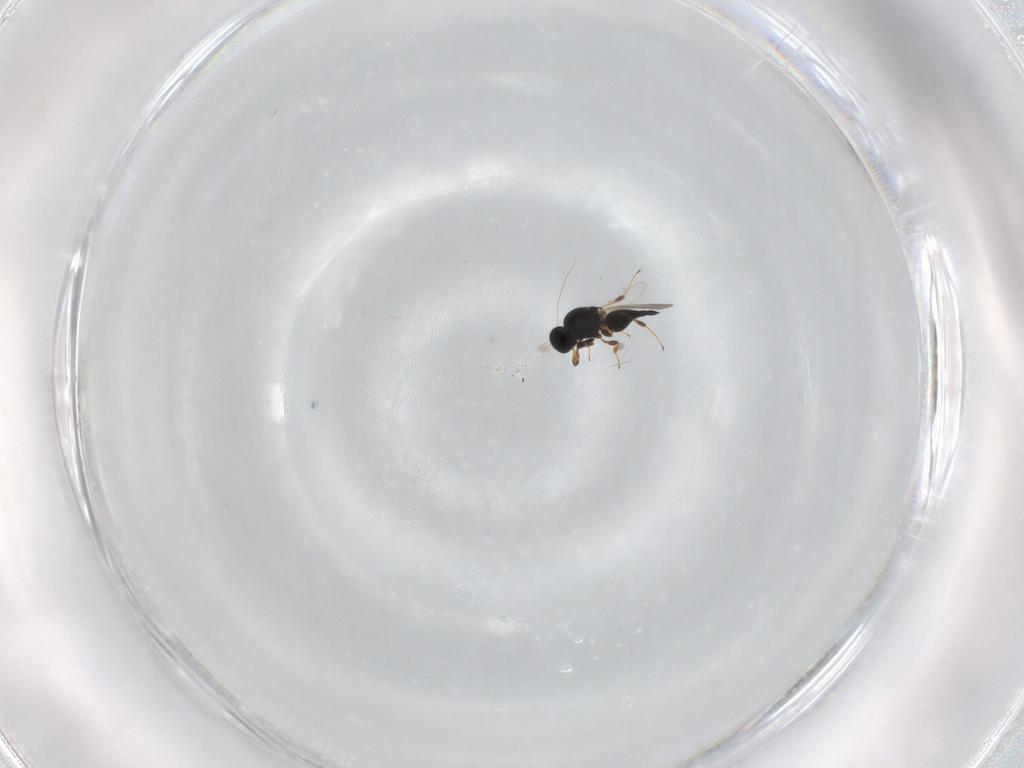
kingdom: Animalia
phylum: Arthropoda
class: Insecta
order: Hymenoptera
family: Platygastridae
